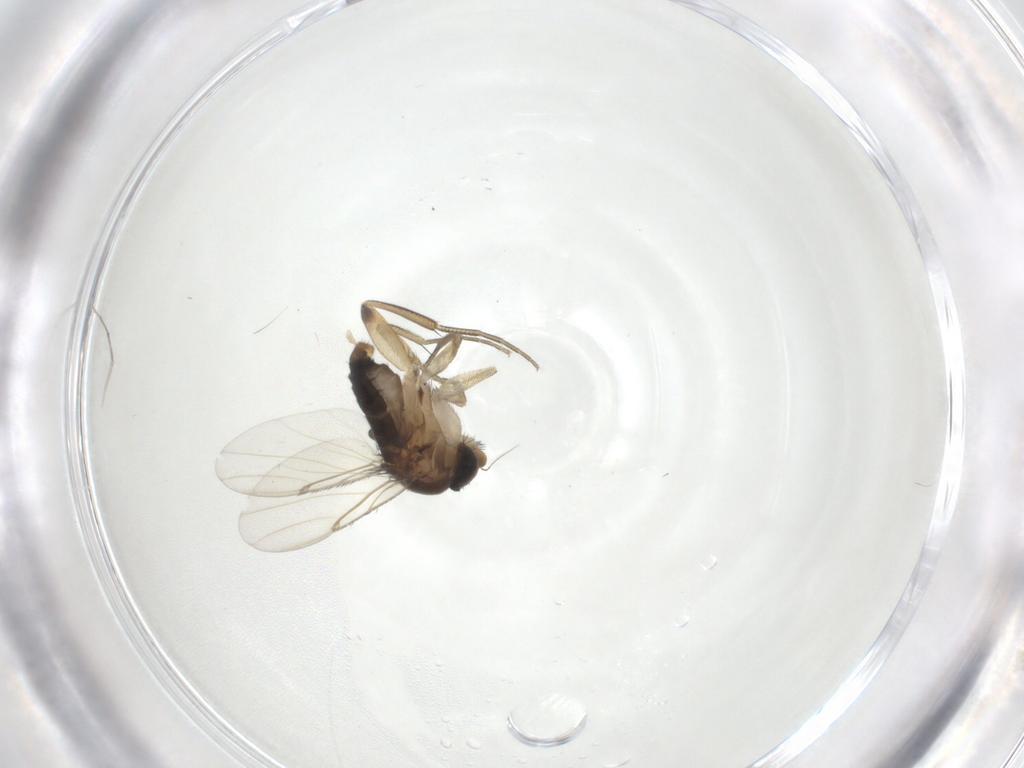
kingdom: Animalia
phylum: Arthropoda
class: Insecta
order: Diptera
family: Phoridae
